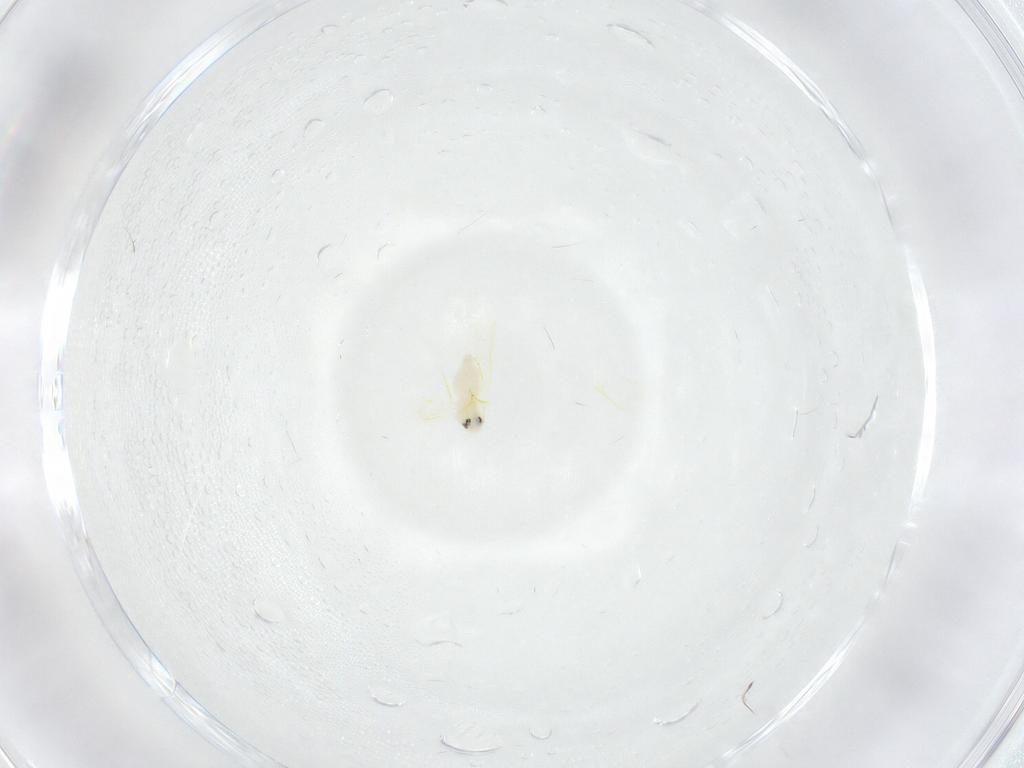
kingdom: Animalia
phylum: Arthropoda
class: Insecta
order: Hemiptera
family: Aleyrodidae
